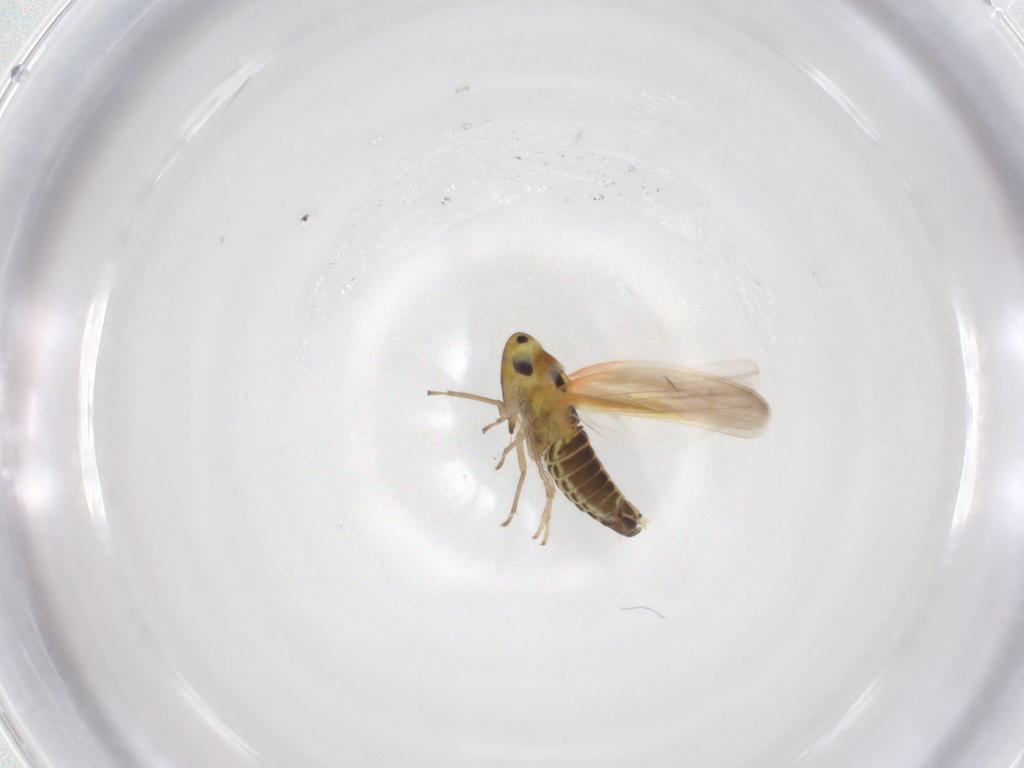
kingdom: Animalia
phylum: Arthropoda
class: Insecta
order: Hemiptera
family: Cicadellidae
